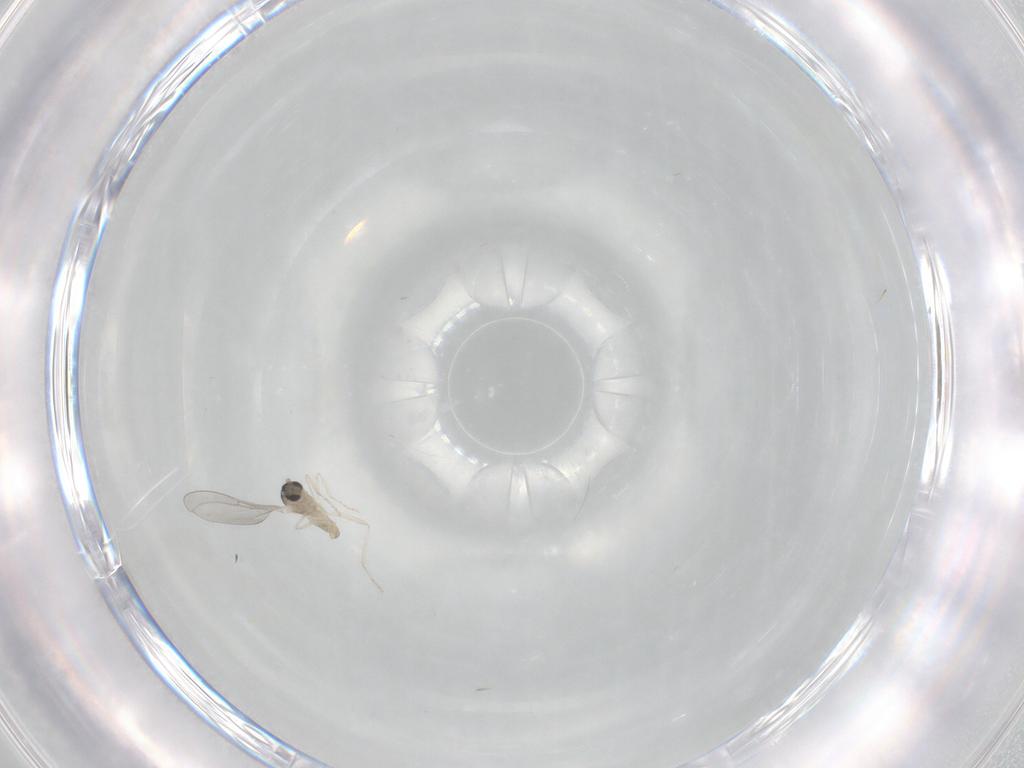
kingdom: Animalia
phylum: Arthropoda
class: Insecta
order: Diptera
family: Cecidomyiidae
